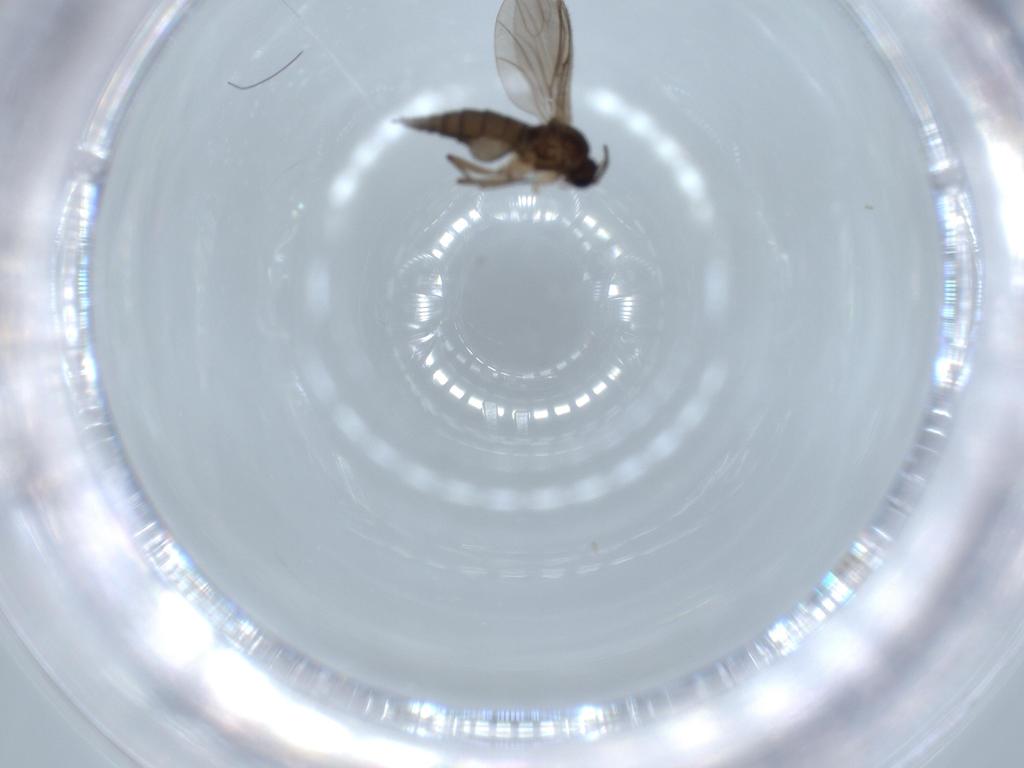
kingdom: Animalia
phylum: Arthropoda
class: Insecta
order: Diptera
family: Sciaridae
